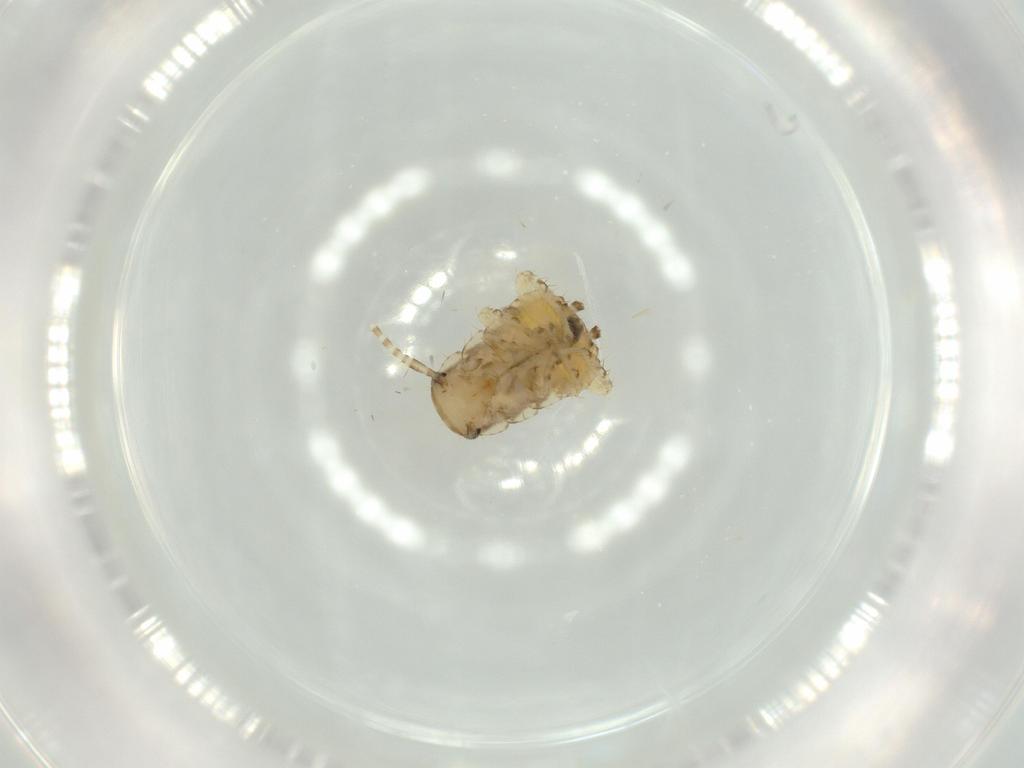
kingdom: Animalia
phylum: Arthropoda
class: Insecta
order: Blattodea
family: Ectobiidae
